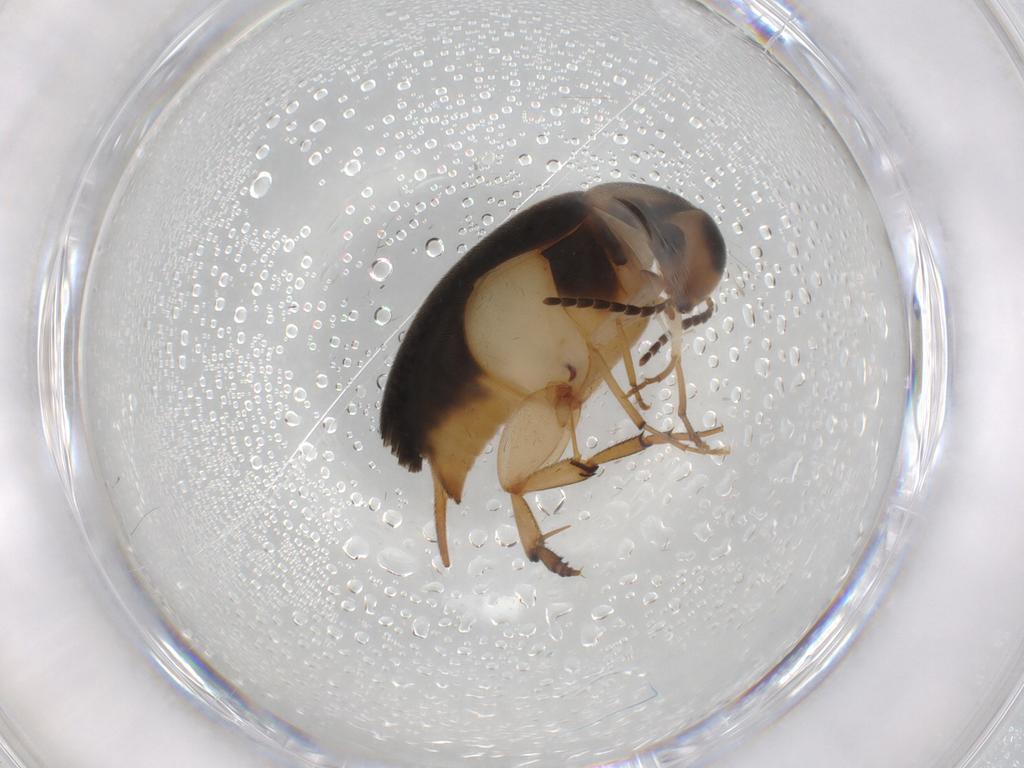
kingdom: Animalia
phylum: Arthropoda
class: Insecta
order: Coleoptera
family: Mordellidae
